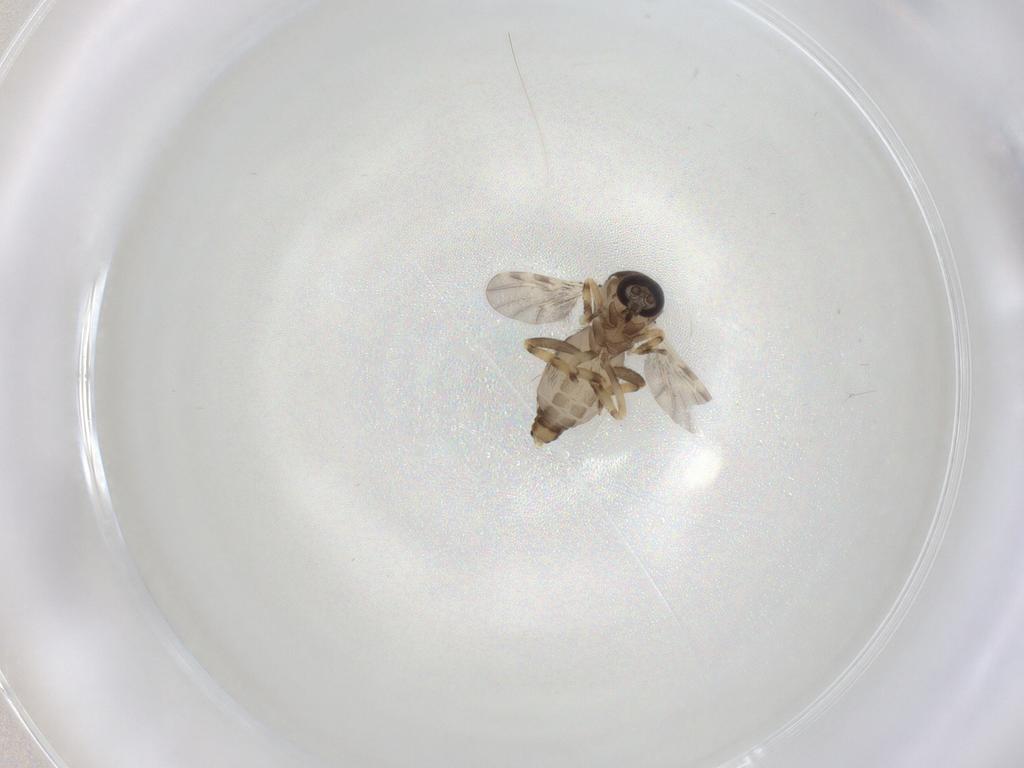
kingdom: Animalia
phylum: Arthropoda
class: Insecta
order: Diptera
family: Ceratopogonidae
